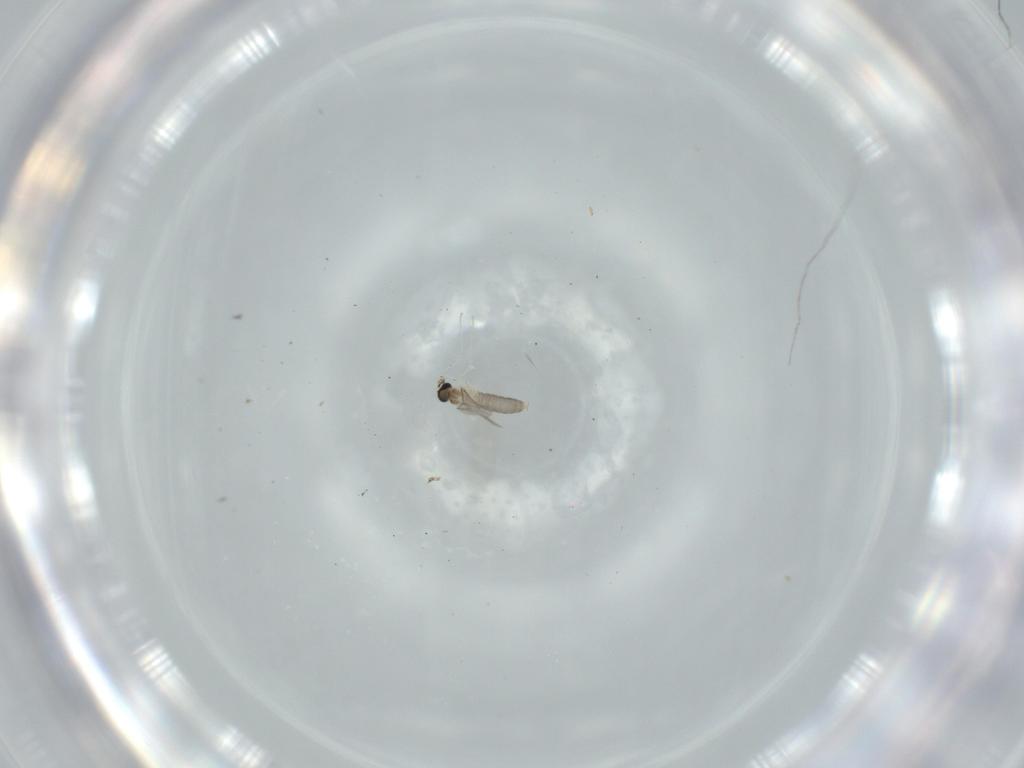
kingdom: Animalia
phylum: Arthropoda
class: Insecta
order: Diptera
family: Cecidomyiidae
